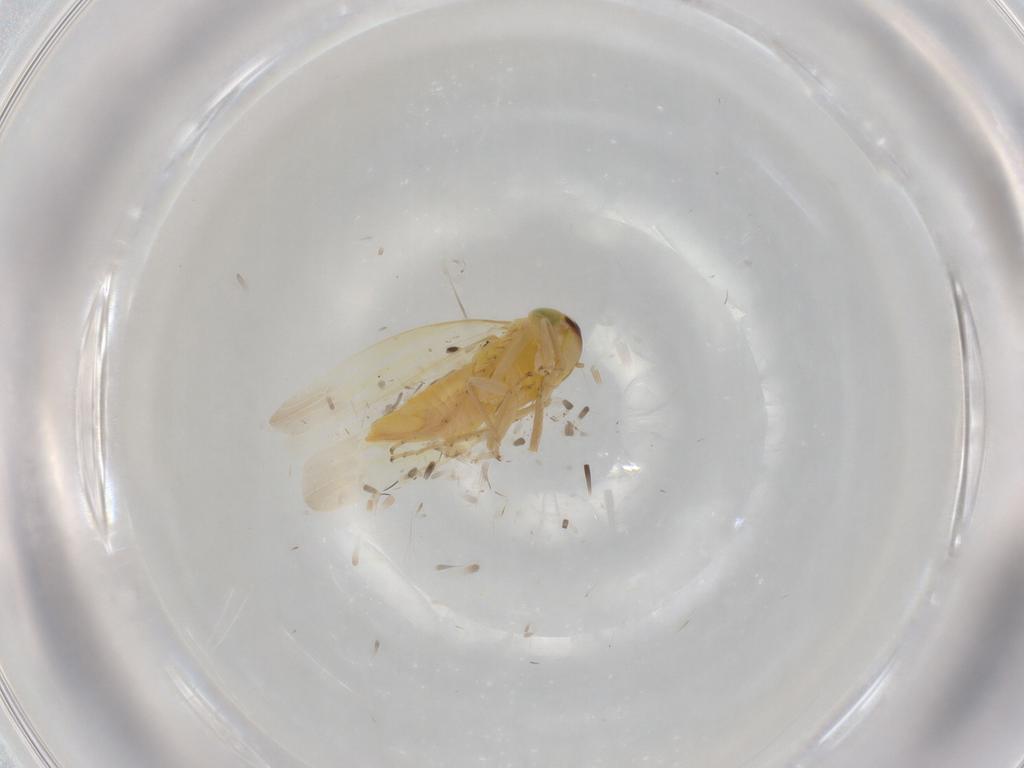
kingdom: Animalia
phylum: Arthropoda
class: Insecta
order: Hemiptera
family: Cicadellidae
